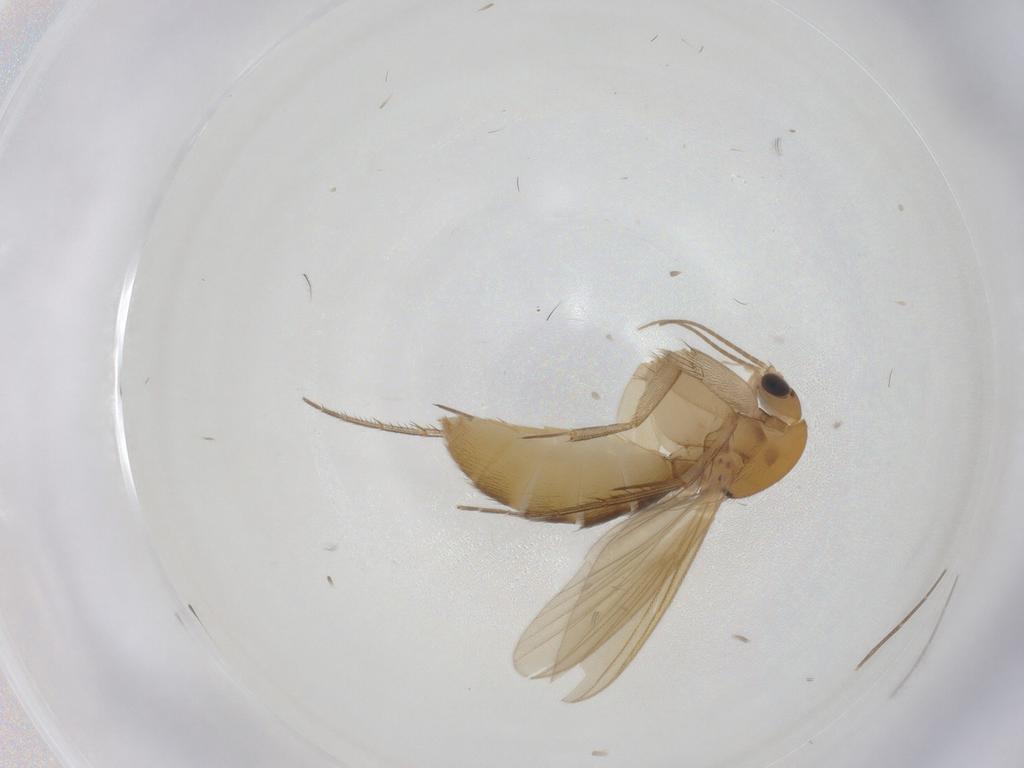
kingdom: Animalia
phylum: Arthropoda
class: Insecta
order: Diptera
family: Mycetophilidae
